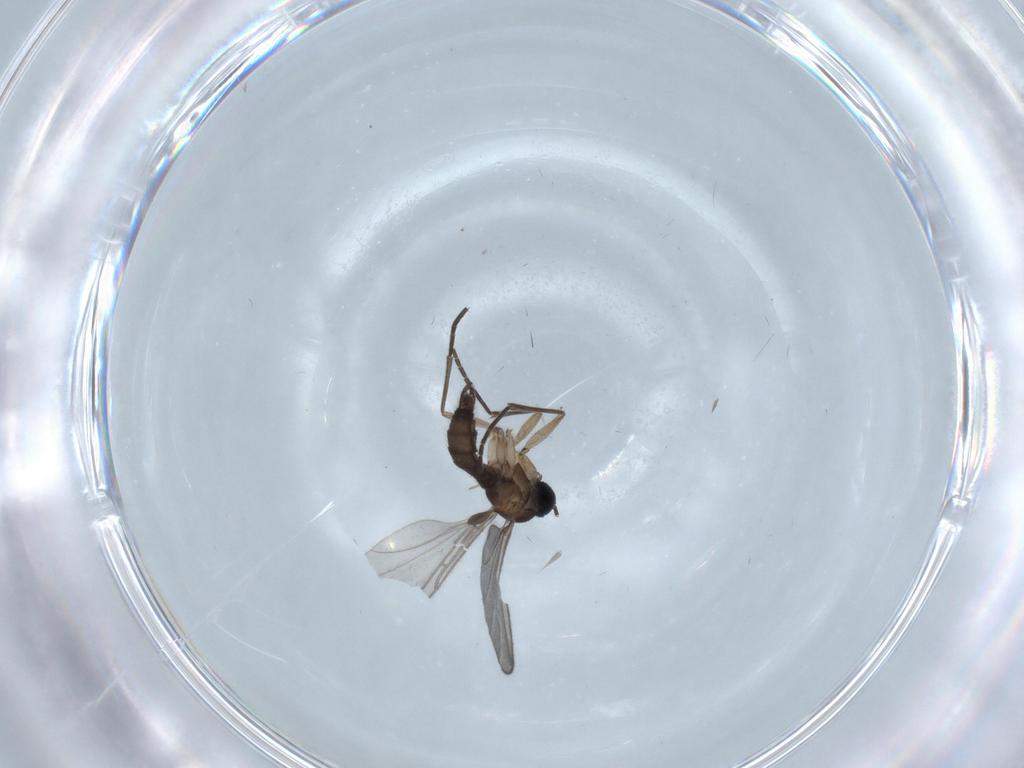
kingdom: Animalia
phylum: Arthropoda
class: Insecta
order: Diptera
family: Sciaridae
